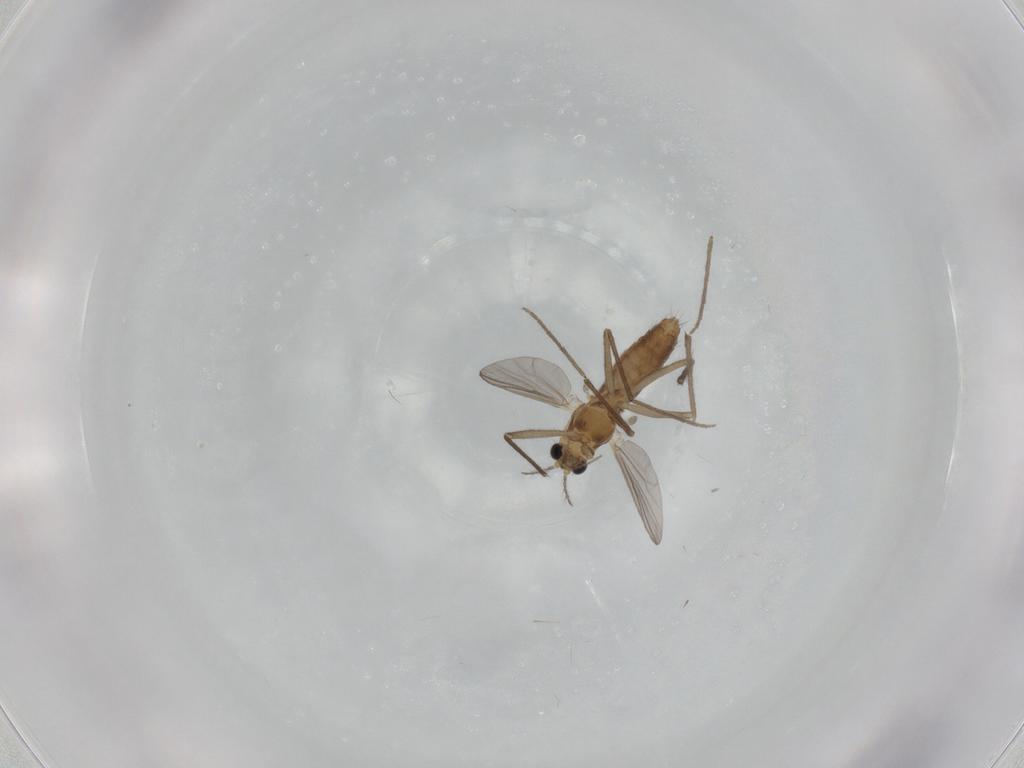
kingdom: Animalia
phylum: Arthropoda
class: Insecta
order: Diptera
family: Chironomidae
